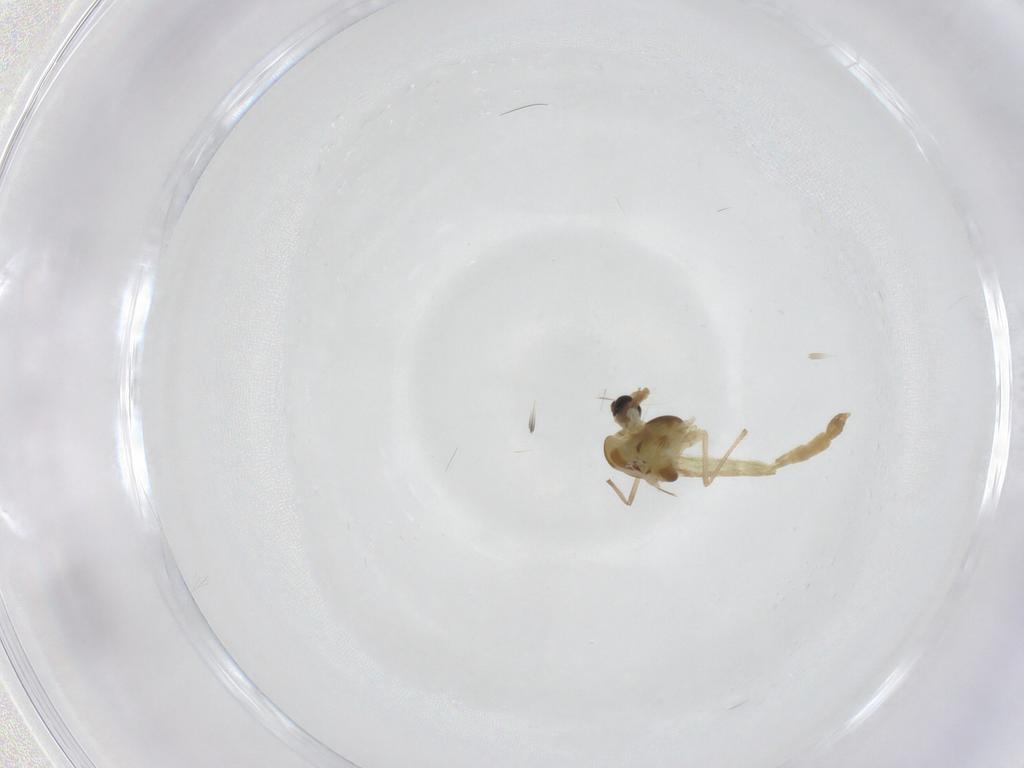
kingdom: Animalia
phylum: Arthropoda
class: Insecta
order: Diptera
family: Chironomidae
